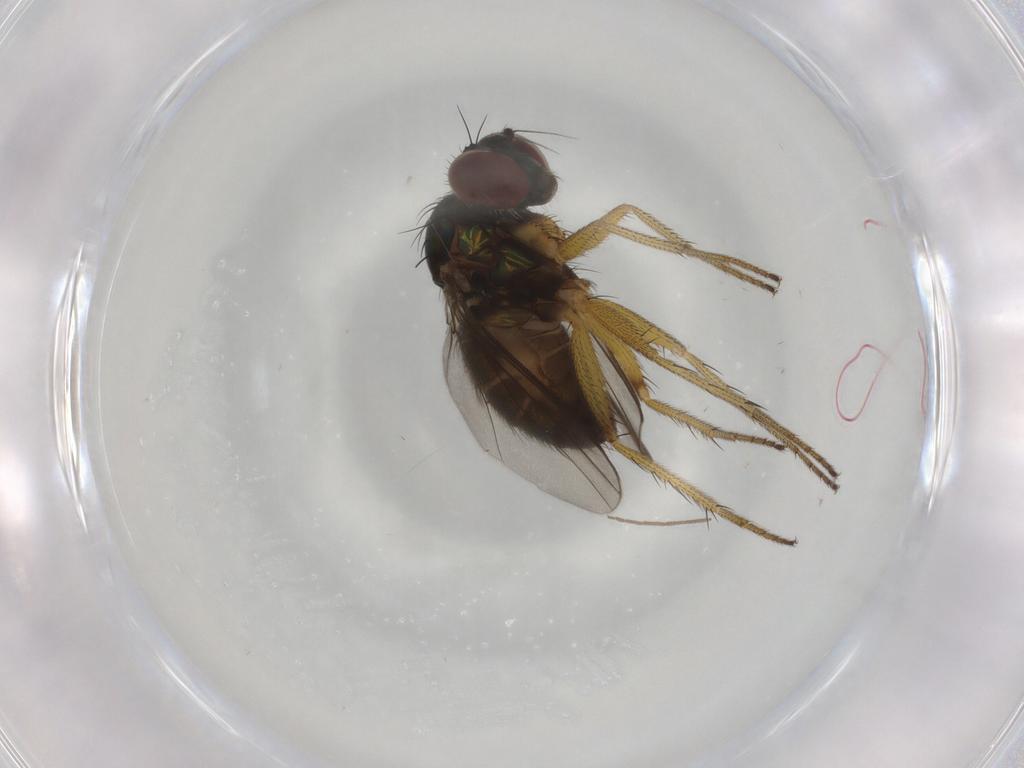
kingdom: Animalia
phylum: Arthropoda
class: Insecta
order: Diptera
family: Dolichopodidae
